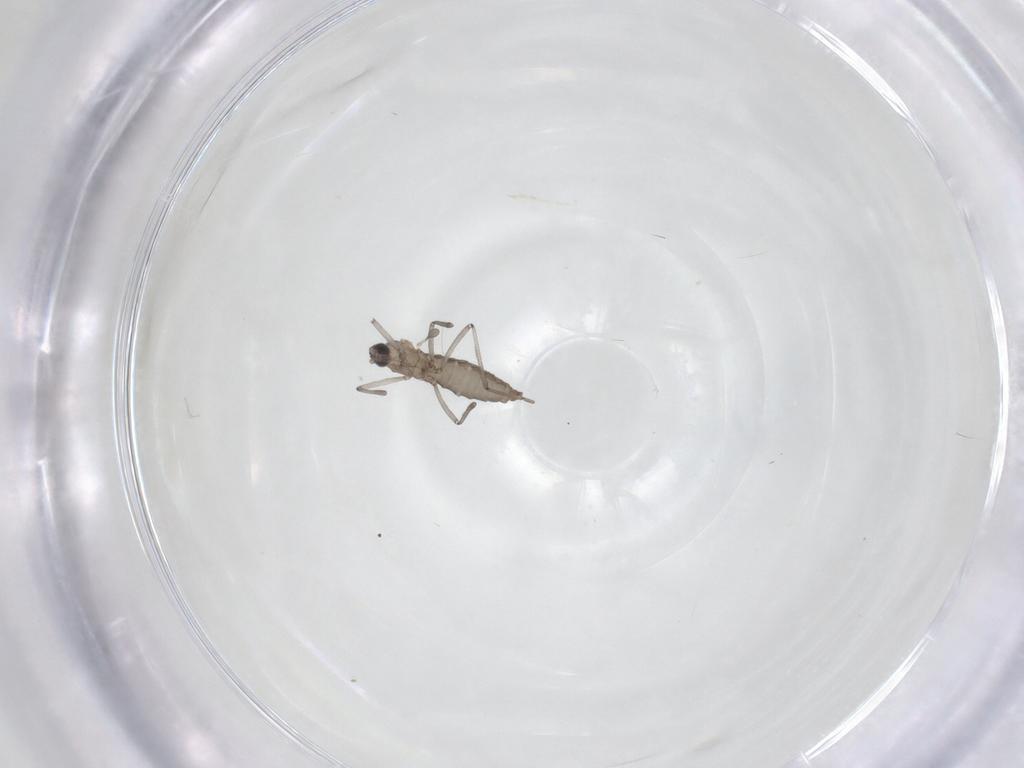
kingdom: Animalia
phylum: Arthropoda
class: Insecta
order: Diptera
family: Cecidomyiidae
